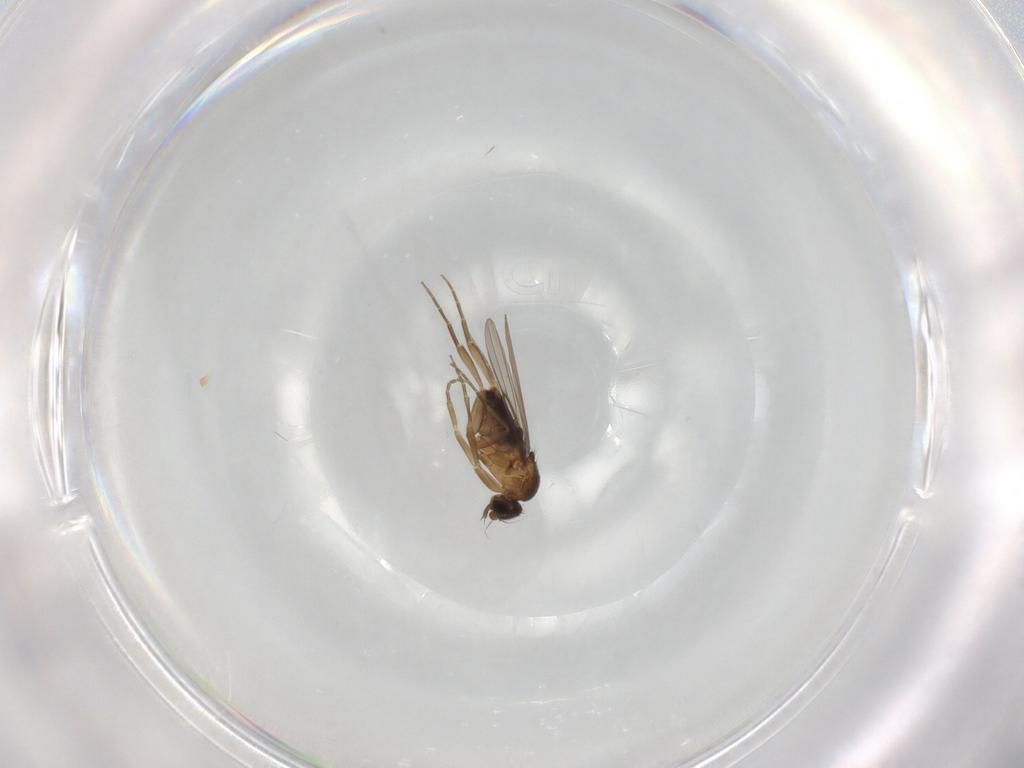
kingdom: Animalia
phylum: Arthropoda
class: Insecta
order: Diptera
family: Phoridae
